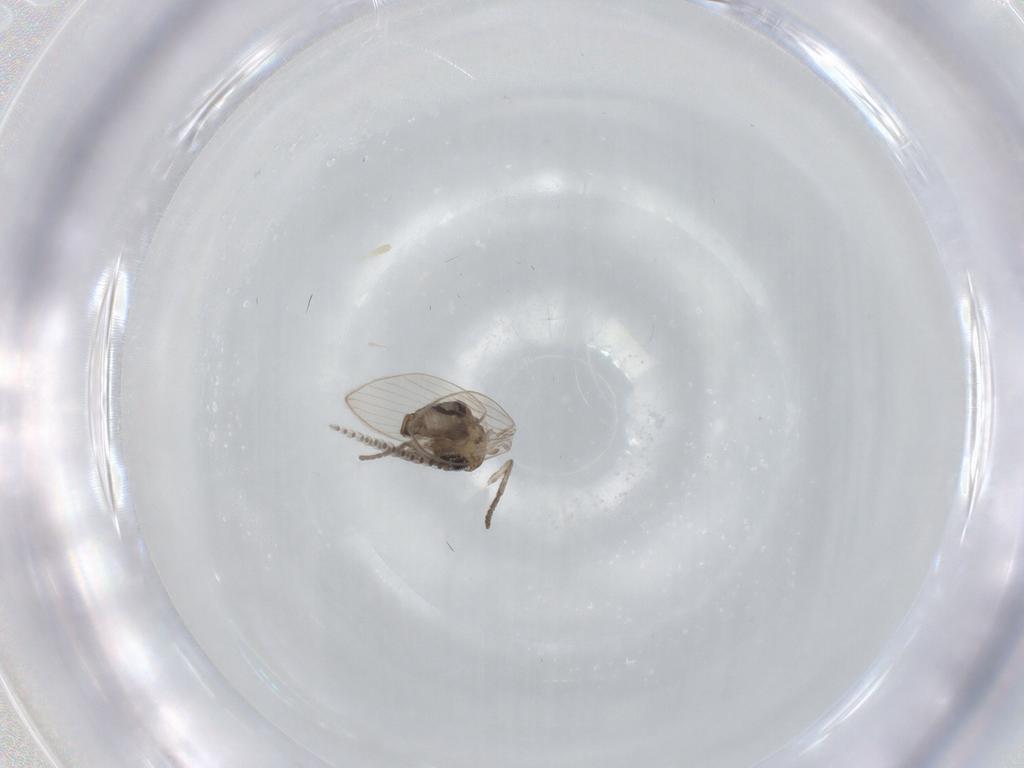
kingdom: Animalia
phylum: Arthropoda
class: Insecta
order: Diptera
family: Psychodidae
